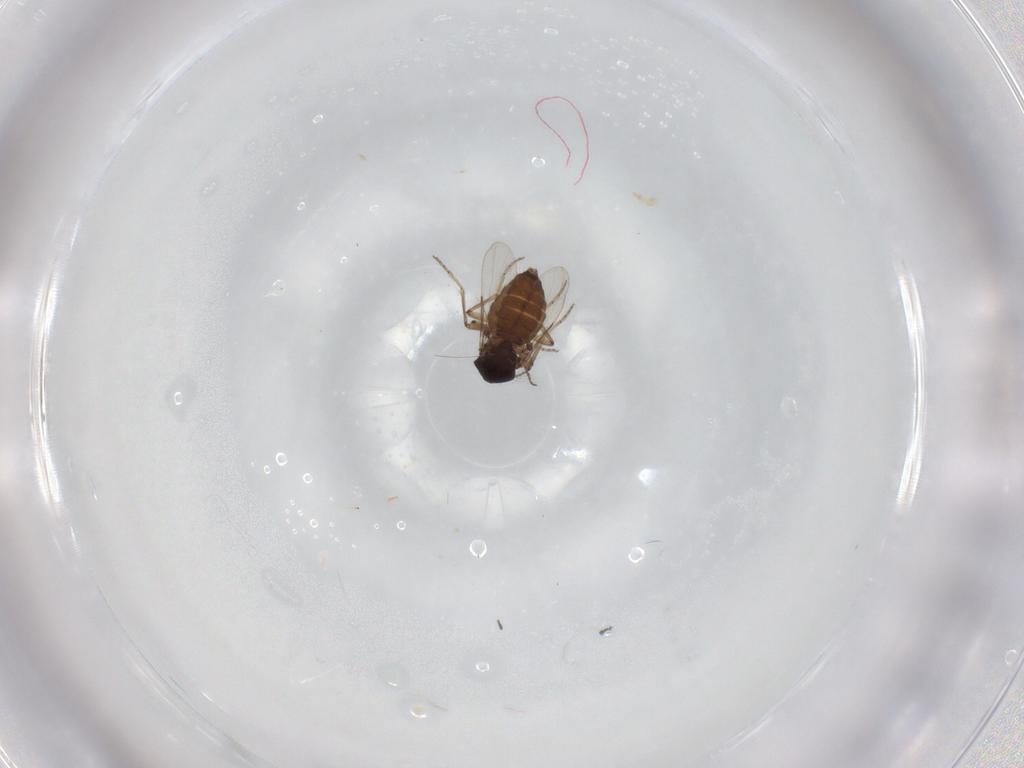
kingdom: Animalia
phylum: Arthropoda
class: Insecta
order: Diptera
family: Ceratopogonidae
